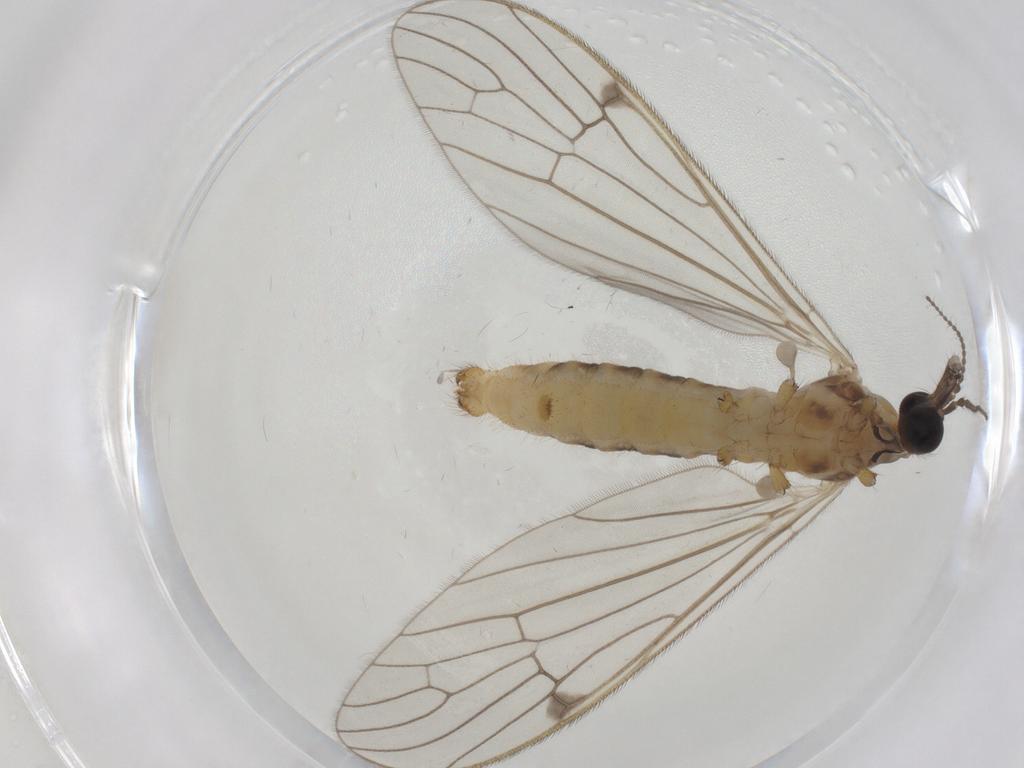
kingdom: Animalia
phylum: Arthropoda
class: Insecta
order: Diptera
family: Limoniidae
